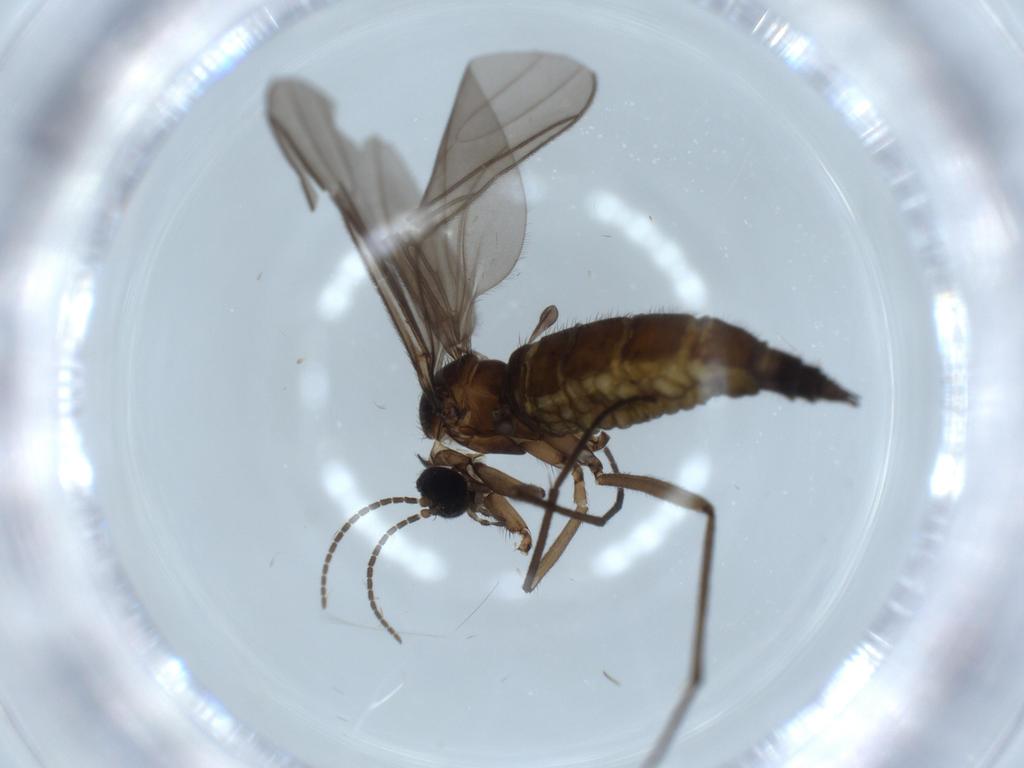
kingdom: Animalia
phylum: Arthropoda
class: Insecta
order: Diptera
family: Sciaridae
